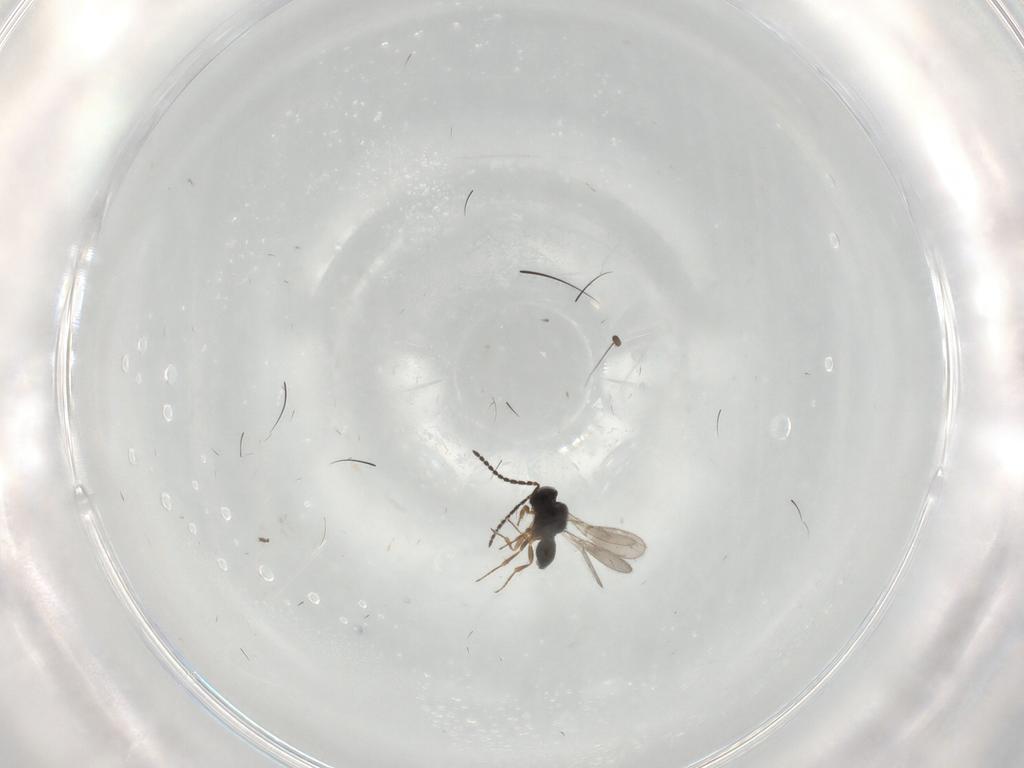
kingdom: Animalia
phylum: Arthropoda
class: Insecta
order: Hymenoptera
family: Scelionidae
